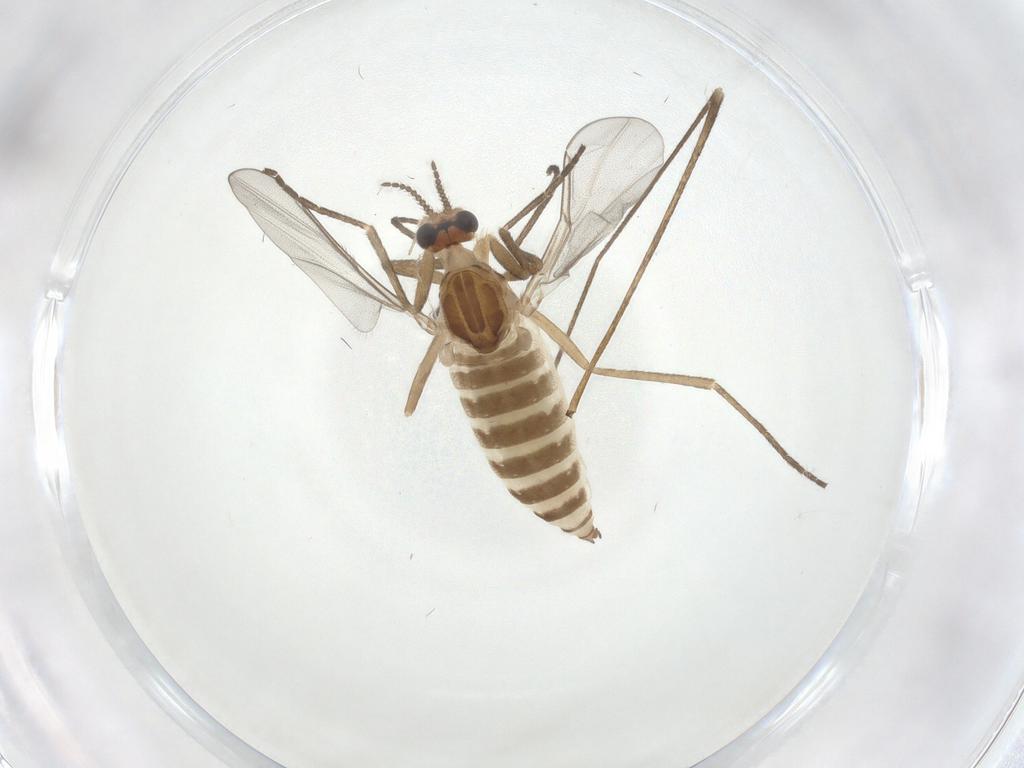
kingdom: Animalia
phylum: Arthropoda
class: Insecta
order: Diptera
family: Cecidomyiidae
